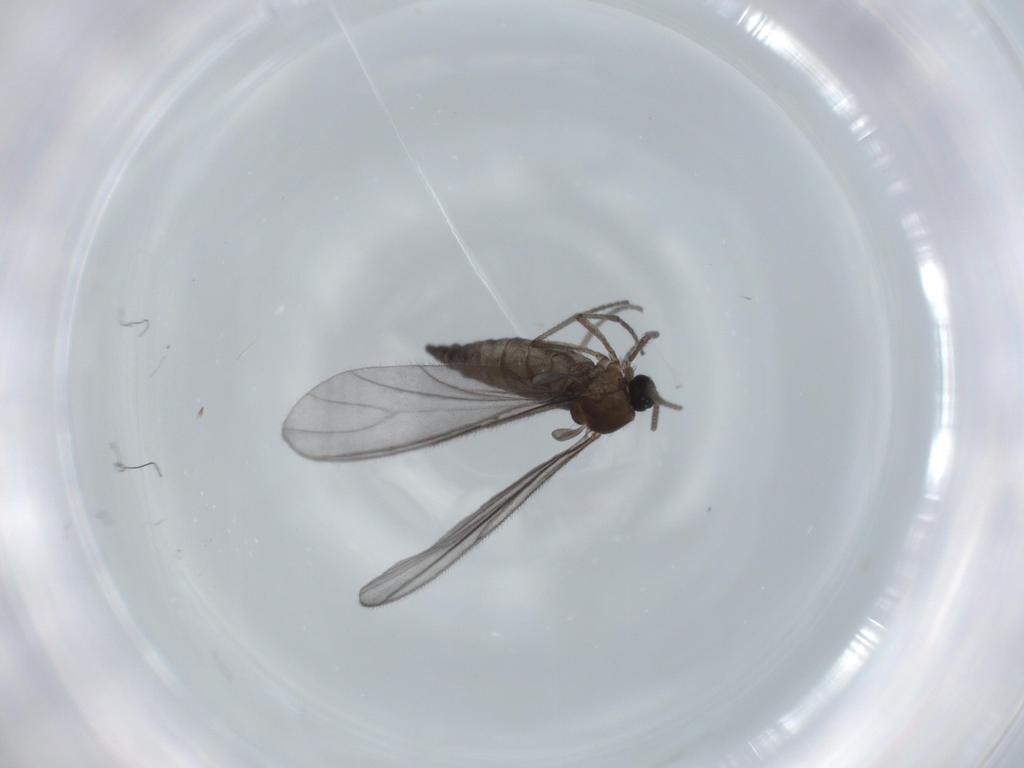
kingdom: Animalia
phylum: Arthropoda
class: Insecta
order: Diptera
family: Cecidomyiidae
